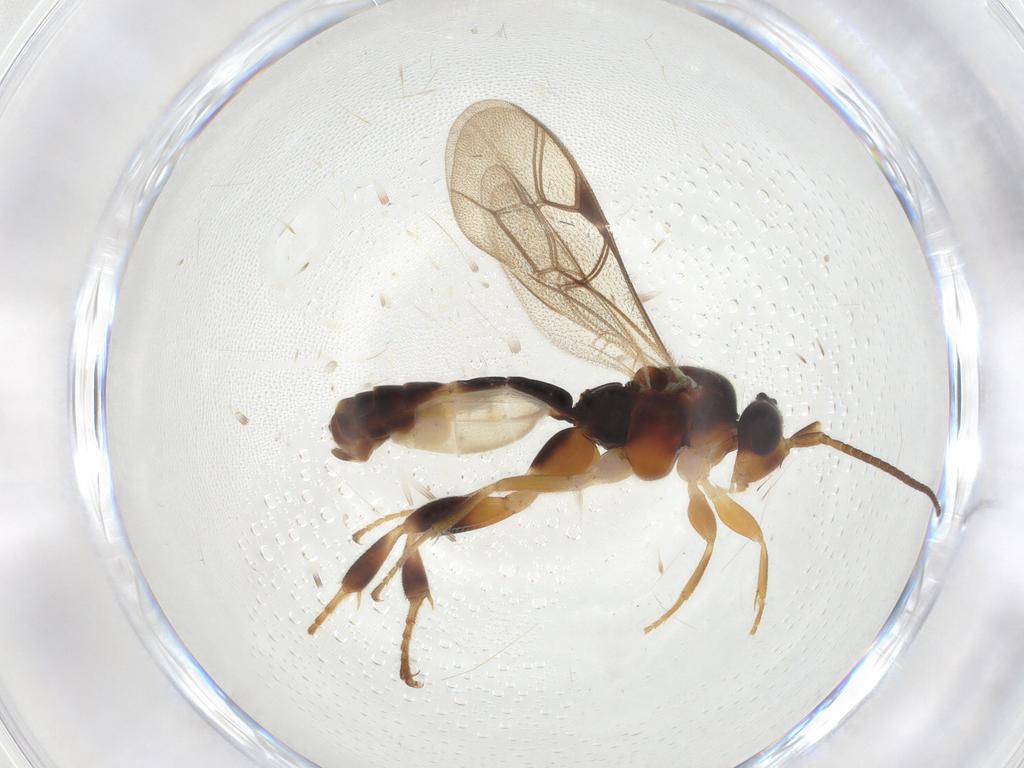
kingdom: Animalia
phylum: Arthropoda
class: Insecta
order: Hymenoptera
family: Ichneumonidae
